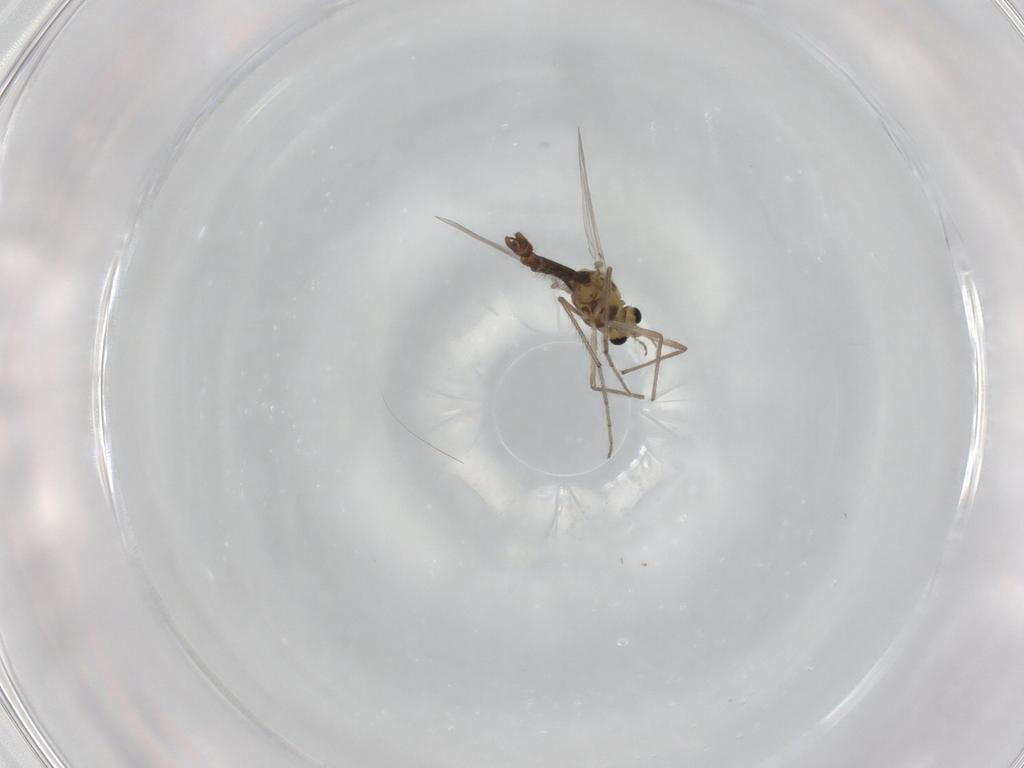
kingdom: Animalia
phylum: Arthropoda
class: Insecta
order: Diptera
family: Chironomidae
